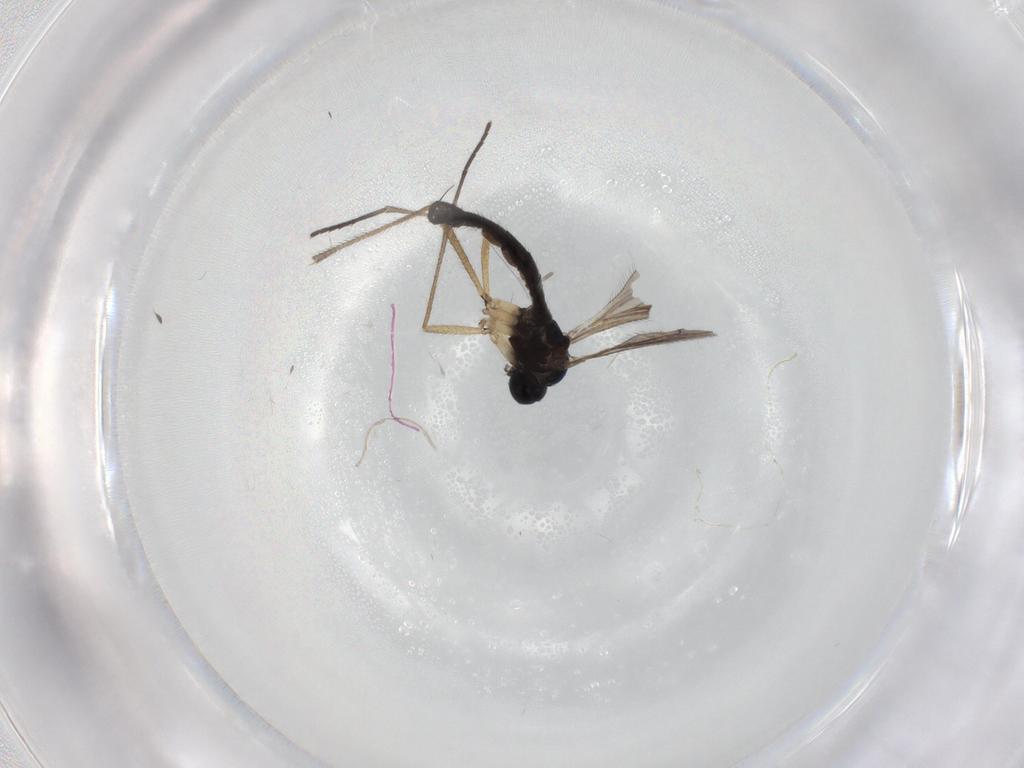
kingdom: Animalia
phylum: Arthropoda
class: Insecta
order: Diptera
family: Sciaridae
